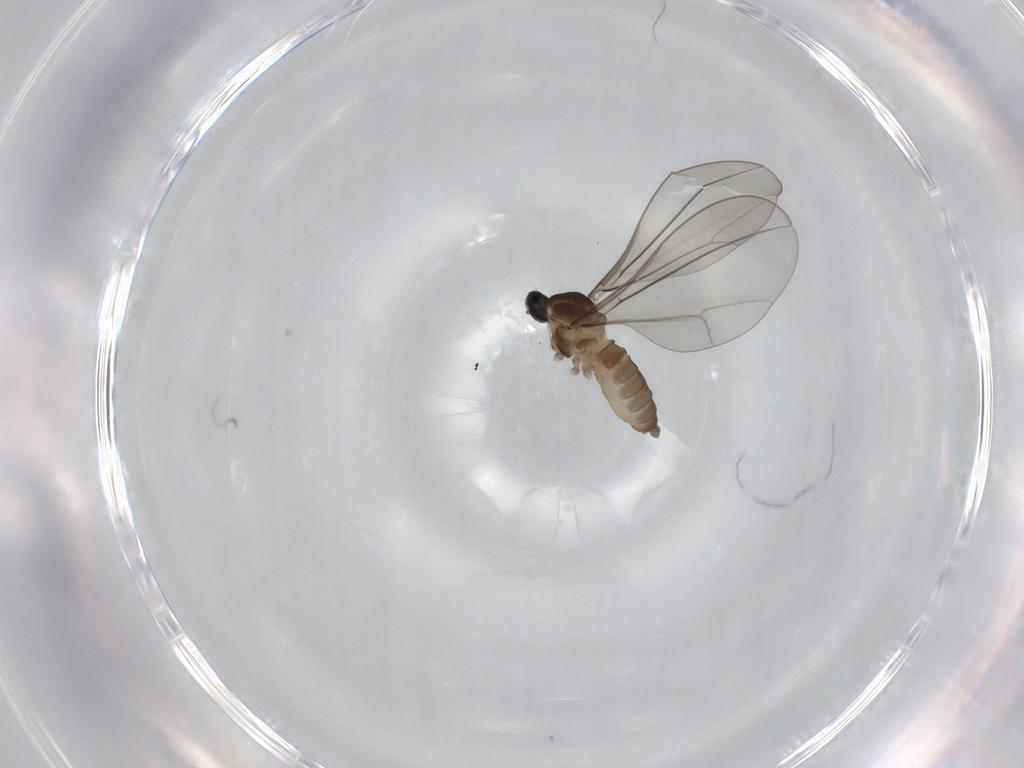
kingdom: Animalia
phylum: Arthropoda
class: Insecta
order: Diptera
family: Cecidomyiidae
